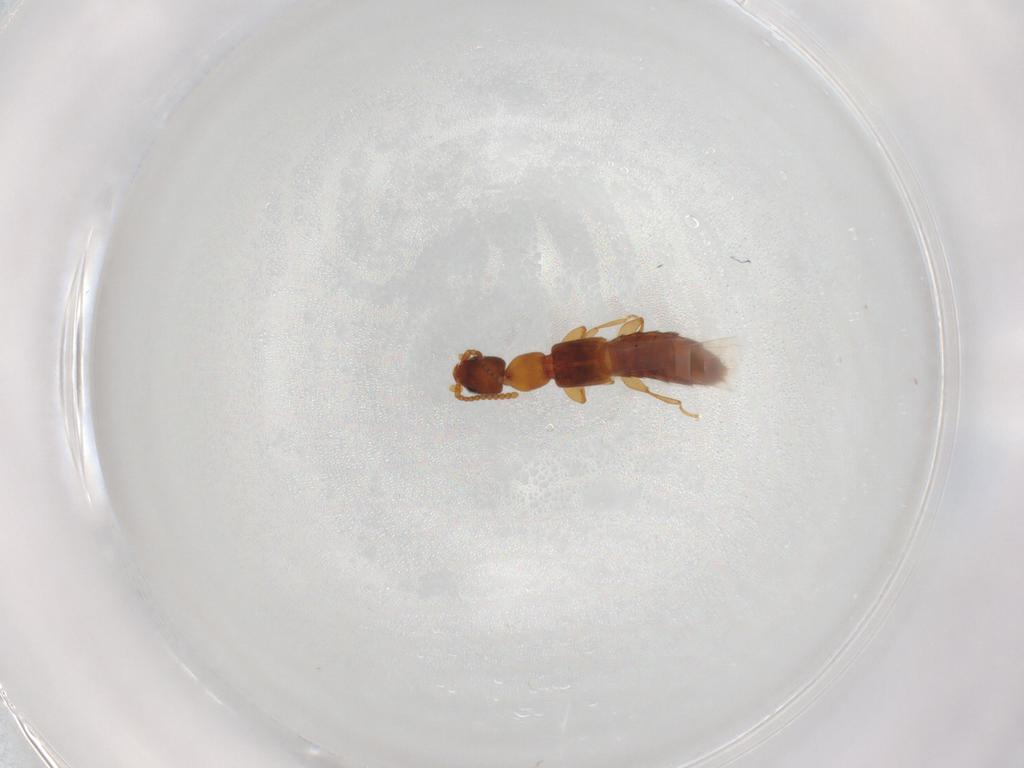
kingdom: Animalia
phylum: Arthropoda
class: Insecta
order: Coleoptera
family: Staphylinidae
